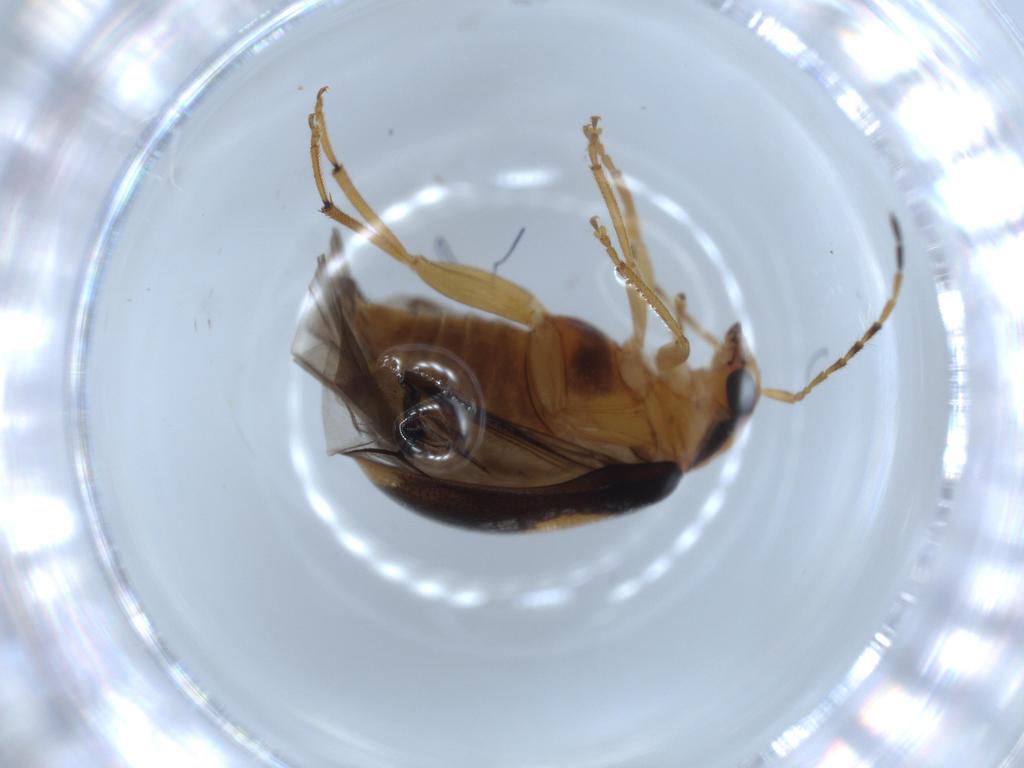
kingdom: Animalia
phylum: Arthropoda
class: Insecta
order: Coleoptera
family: Chrysomelidae
